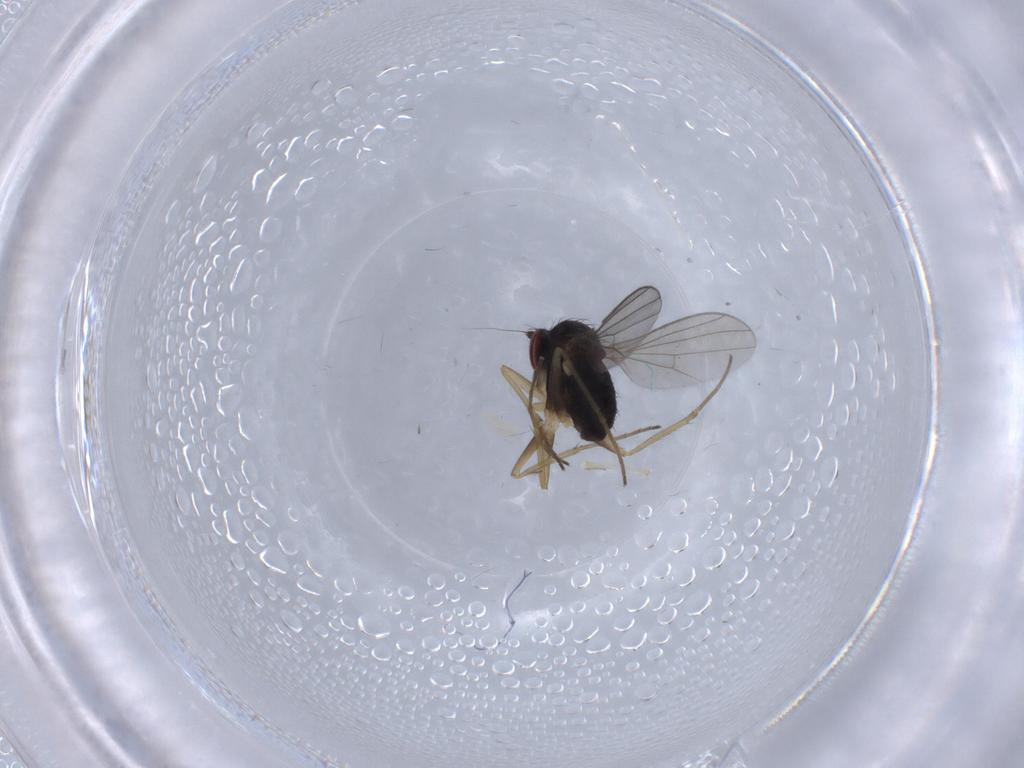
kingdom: Animalia
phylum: Arthropoda
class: Insecta
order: Diptera
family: Dolichopodidae
